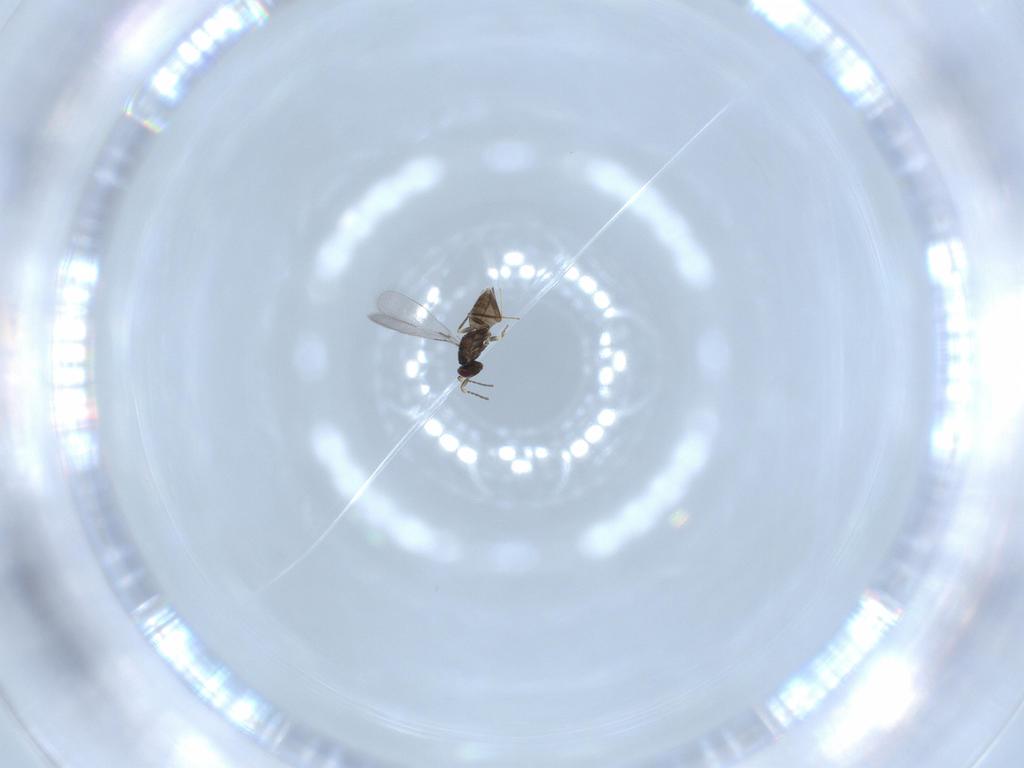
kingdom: Animalia
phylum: Arthropoda
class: Insecta
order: Hymenoptera
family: Mymaridae
